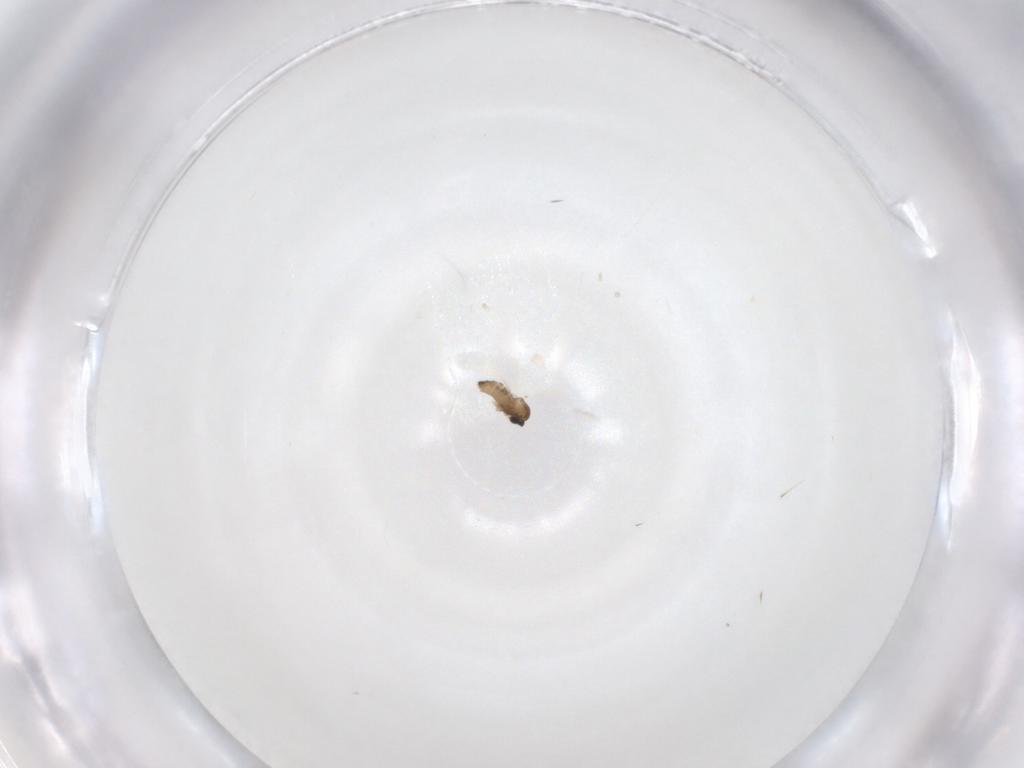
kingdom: Animalia
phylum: Arthropoda
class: Insecta
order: Diptera
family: Cecidomyiidae
